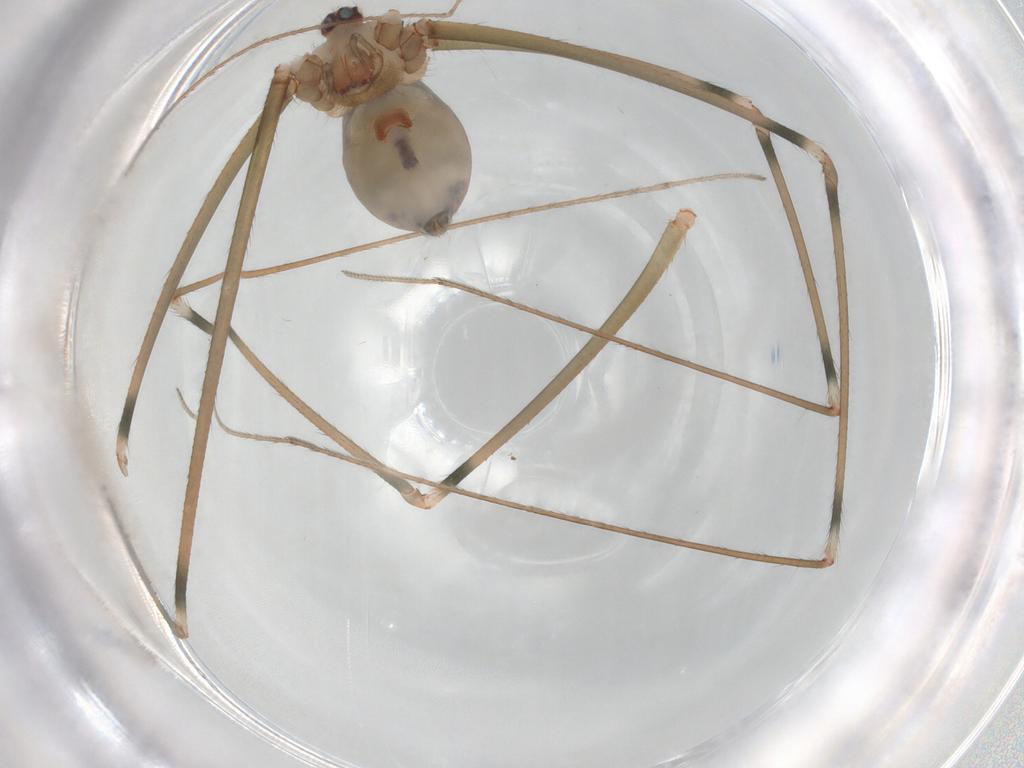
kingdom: Animalia
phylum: Arthropoda
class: Arachnida
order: Araneae
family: Pholcidae
